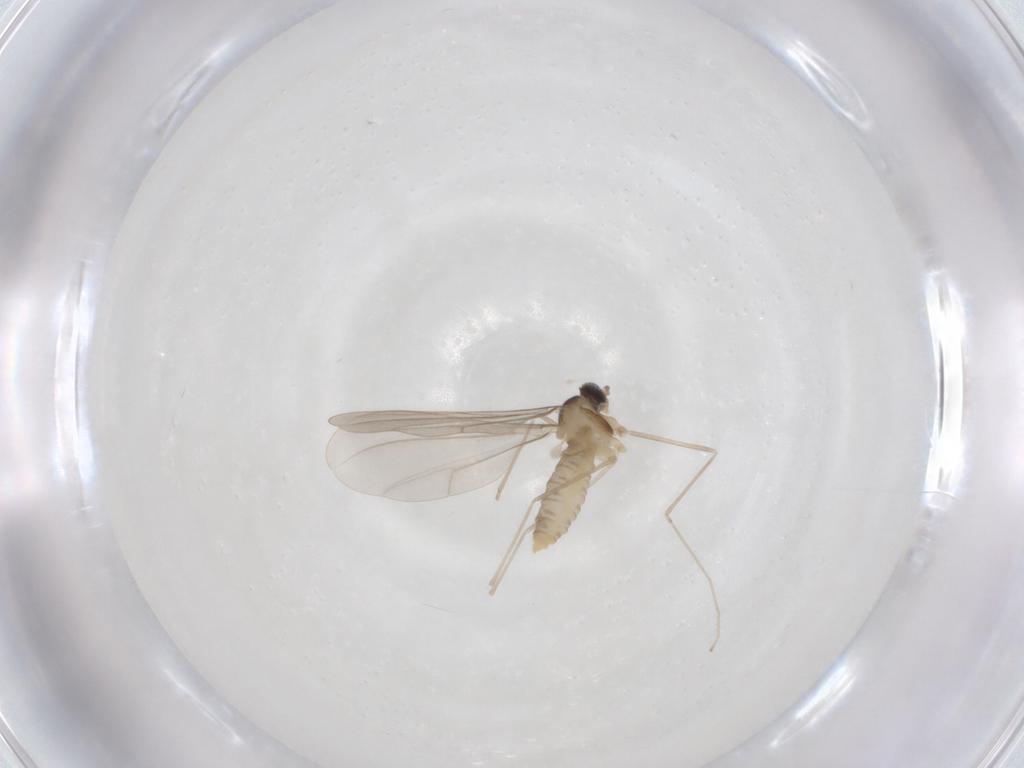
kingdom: Animalia
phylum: Arthropoda
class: Insecta
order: Diptera
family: Cecidomyiidae
